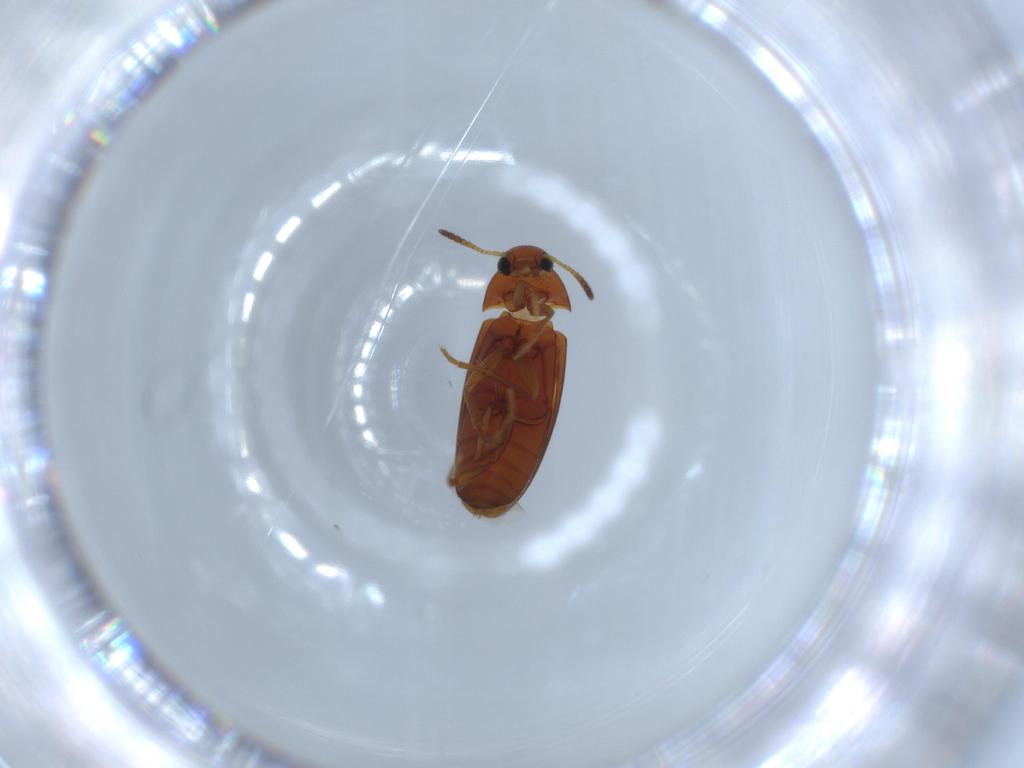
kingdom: Animalia
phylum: Arthropoda
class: Insecta
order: Coleoptera
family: Scraptiidae
